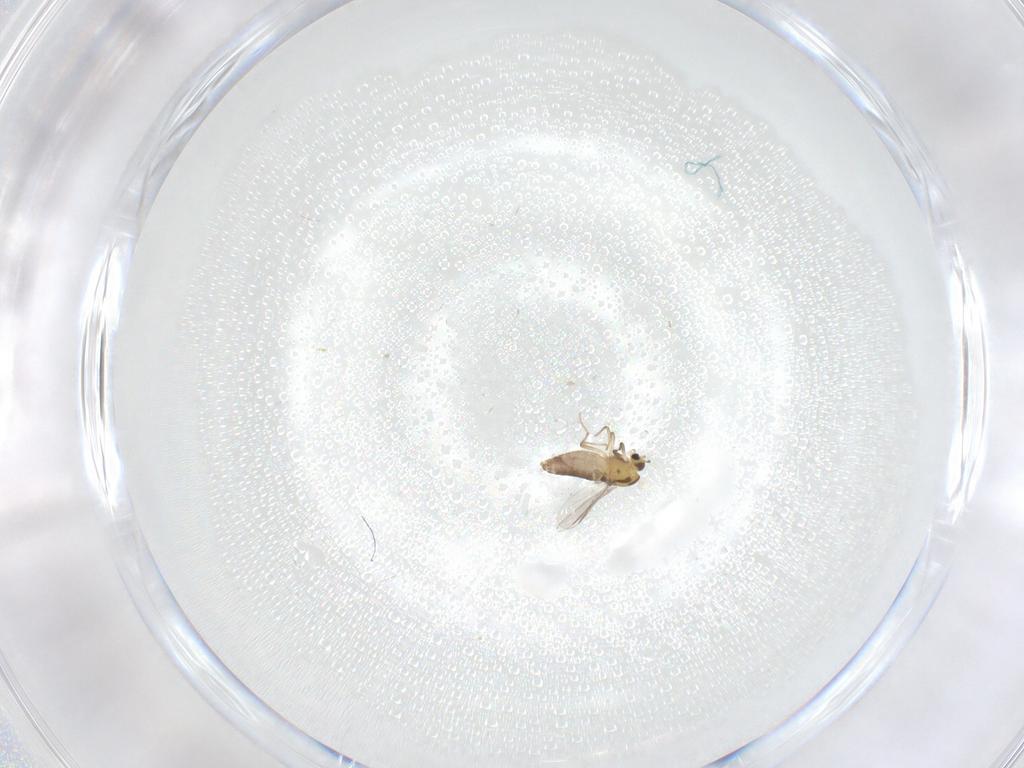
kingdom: Animalia
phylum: Arthropoda
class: Insecta
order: Diptera
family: Chironomidae
